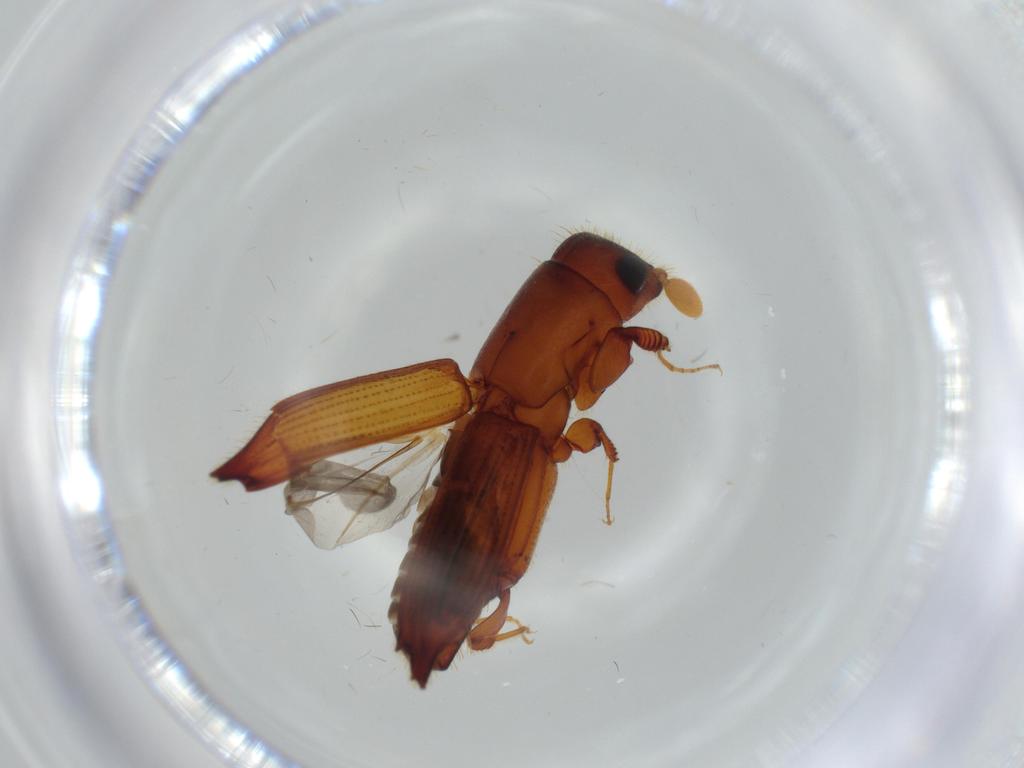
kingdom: Animalia
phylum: Arthropoda
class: Insecta
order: Coleoptera
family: Curculionidae
